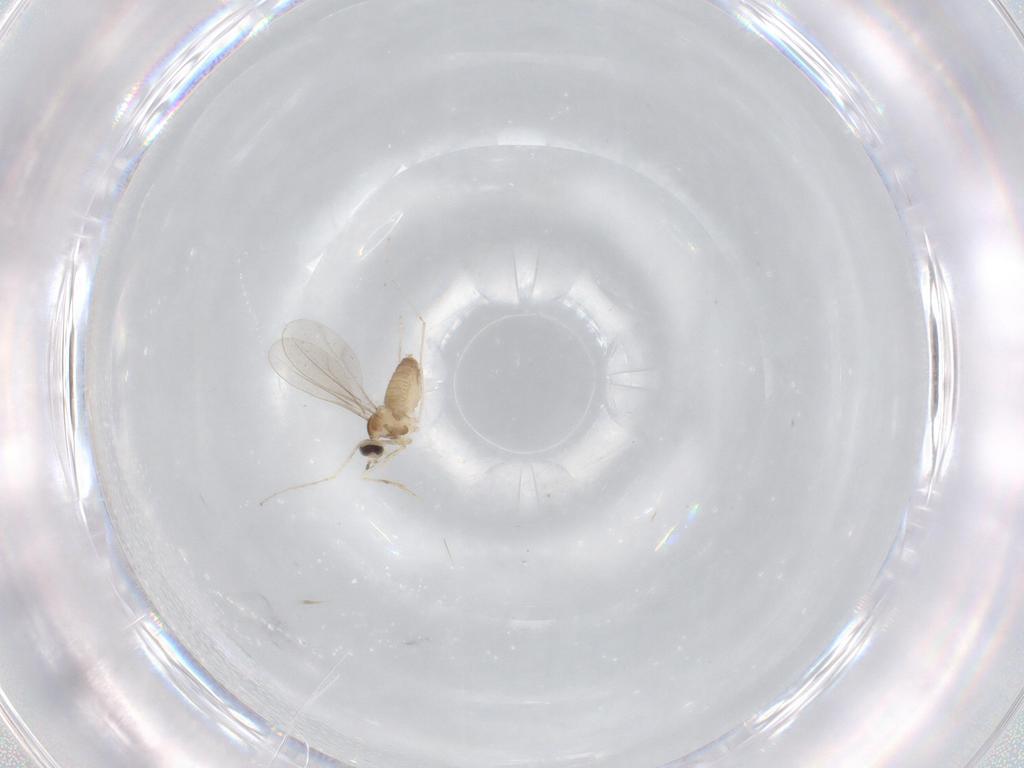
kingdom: Animalia
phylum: Arthropoda
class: Insecta
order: Diptera
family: Cecidomyiidae
